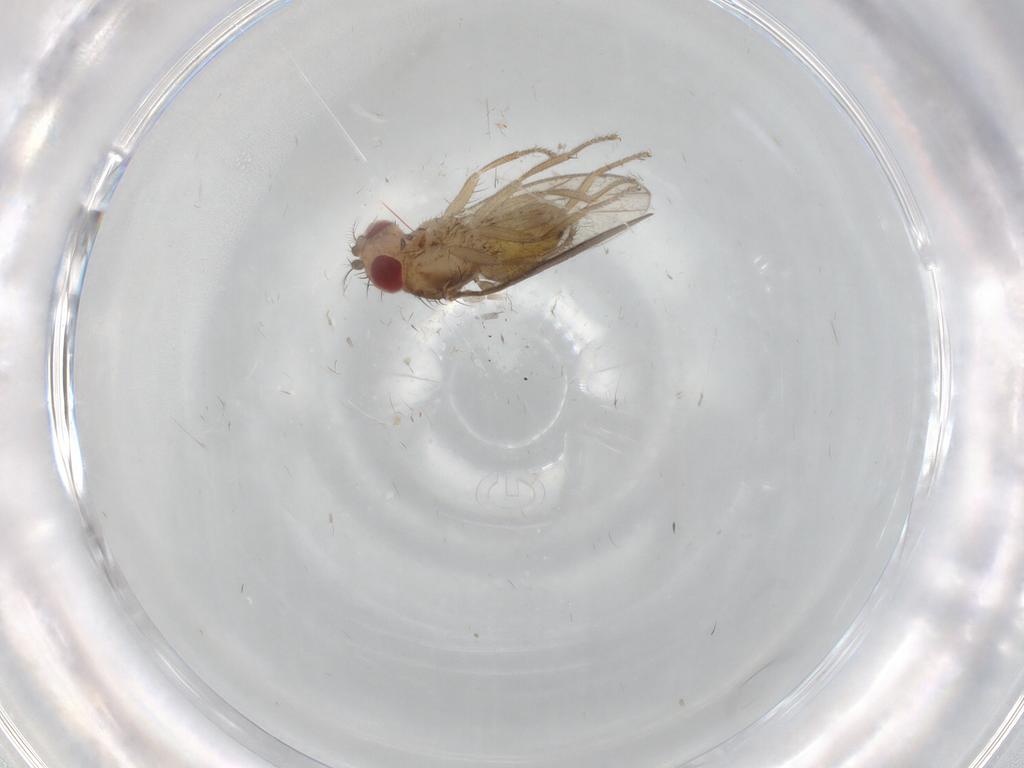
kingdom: Animalia
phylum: Arthropoda
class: Insecta
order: Diptera
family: Drosophilidae
